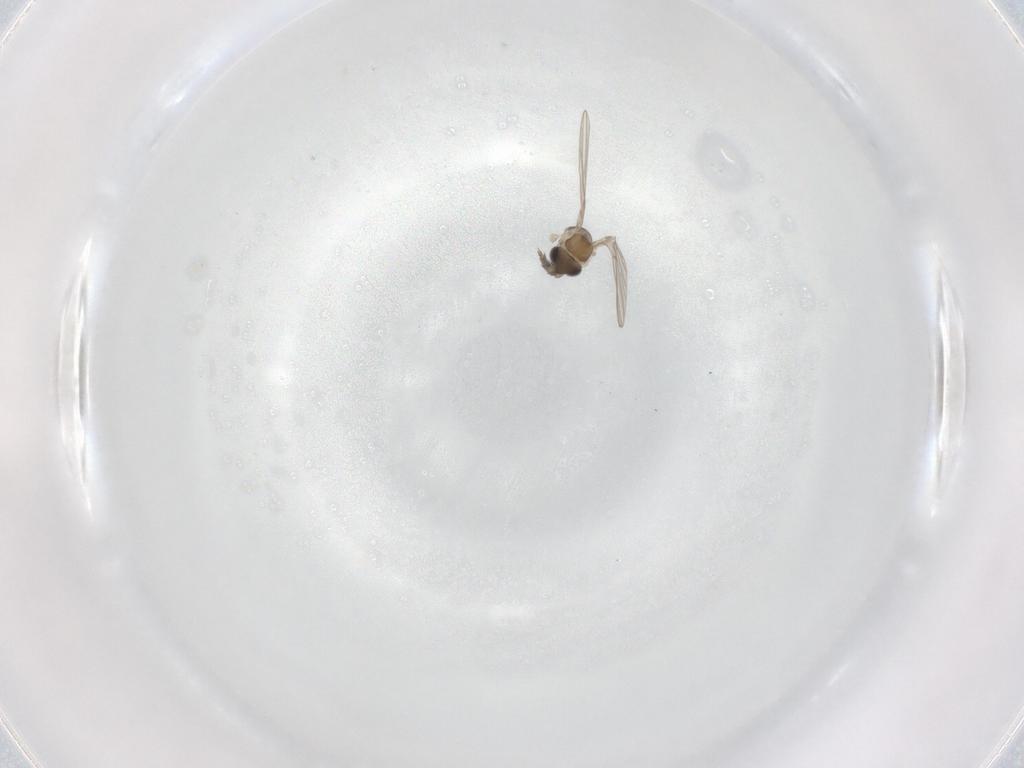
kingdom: Animalia
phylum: Arthropoda
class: Insecta
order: Diptera
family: Psychodidae
